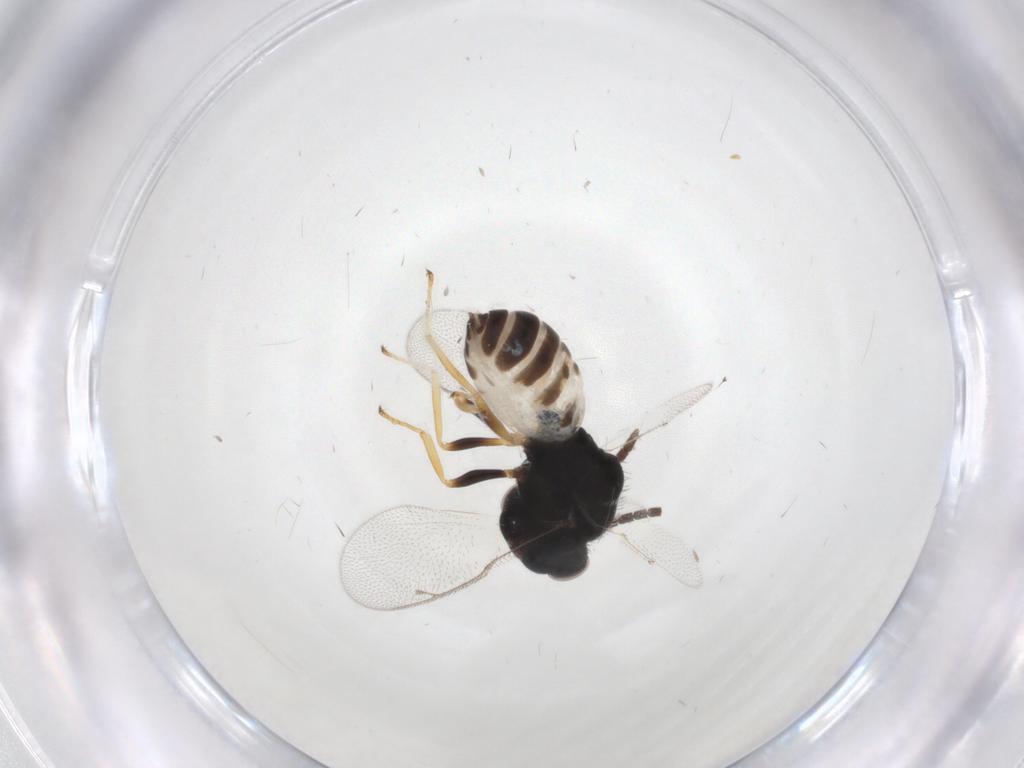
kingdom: Animalia
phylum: Arthropoda
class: Insecta
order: Hymenoptera
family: Pteromalidae
